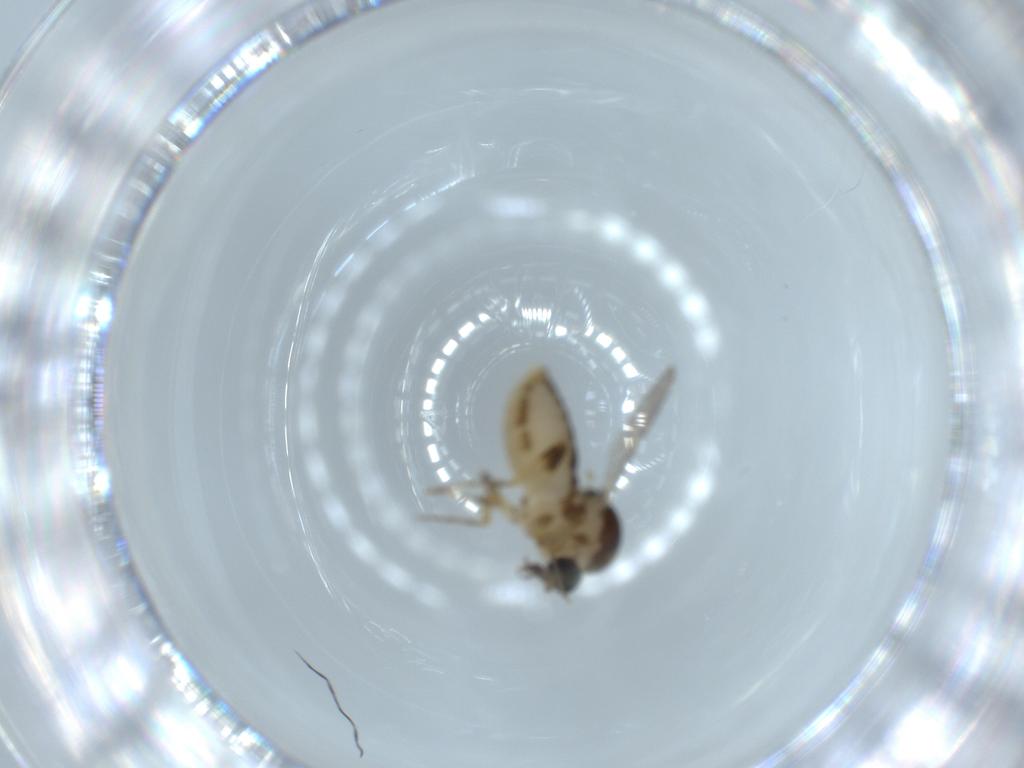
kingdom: Animalia
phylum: Arthropoda
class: Insecta
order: Diptera
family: Ceratopogonidae
